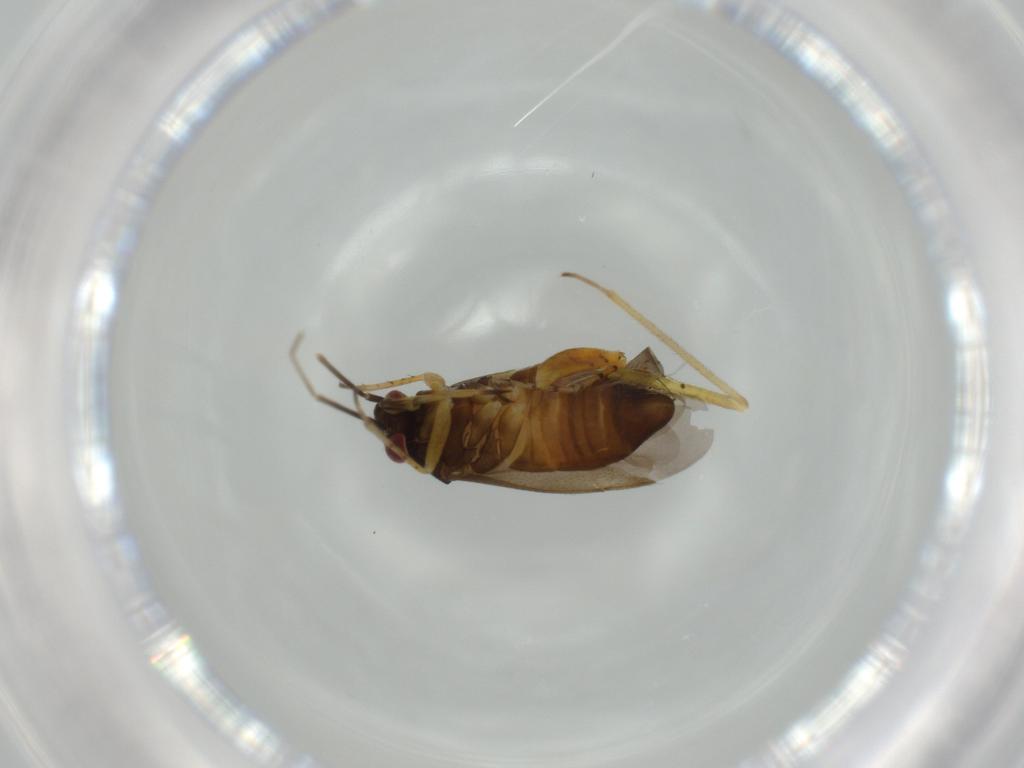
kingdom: Animalia
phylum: Arthropoda
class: Insecta
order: Hemiptera
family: Miridae
